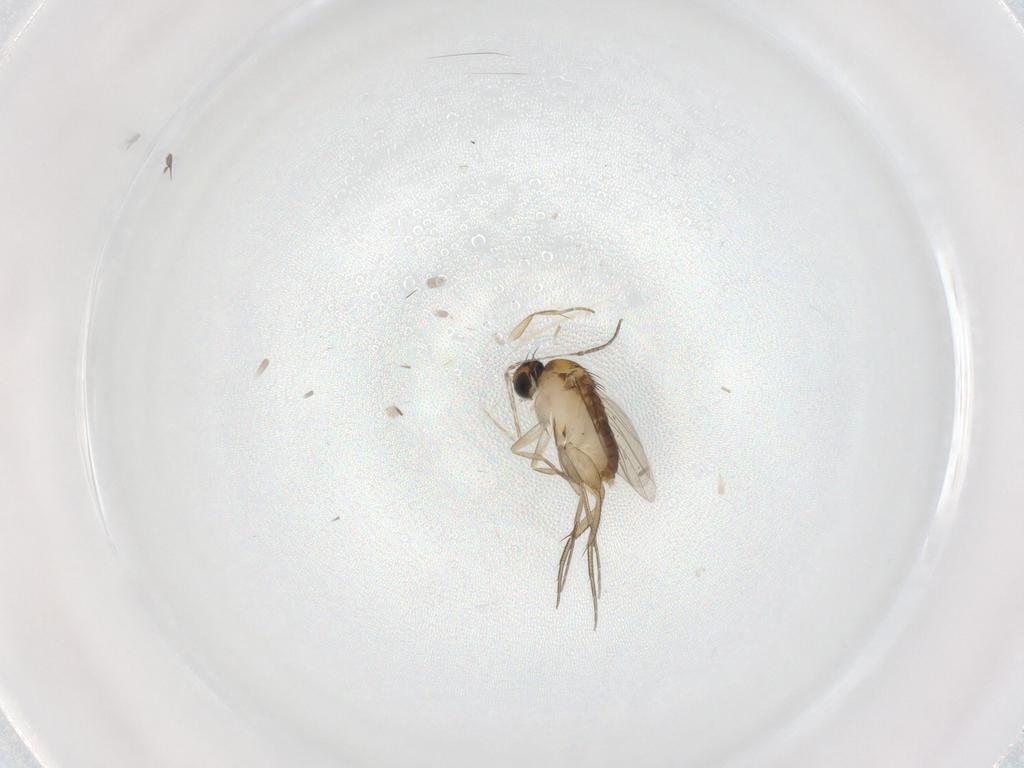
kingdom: Animalia
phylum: Arthropoda
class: Insecta
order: Diptera
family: Phoridae
